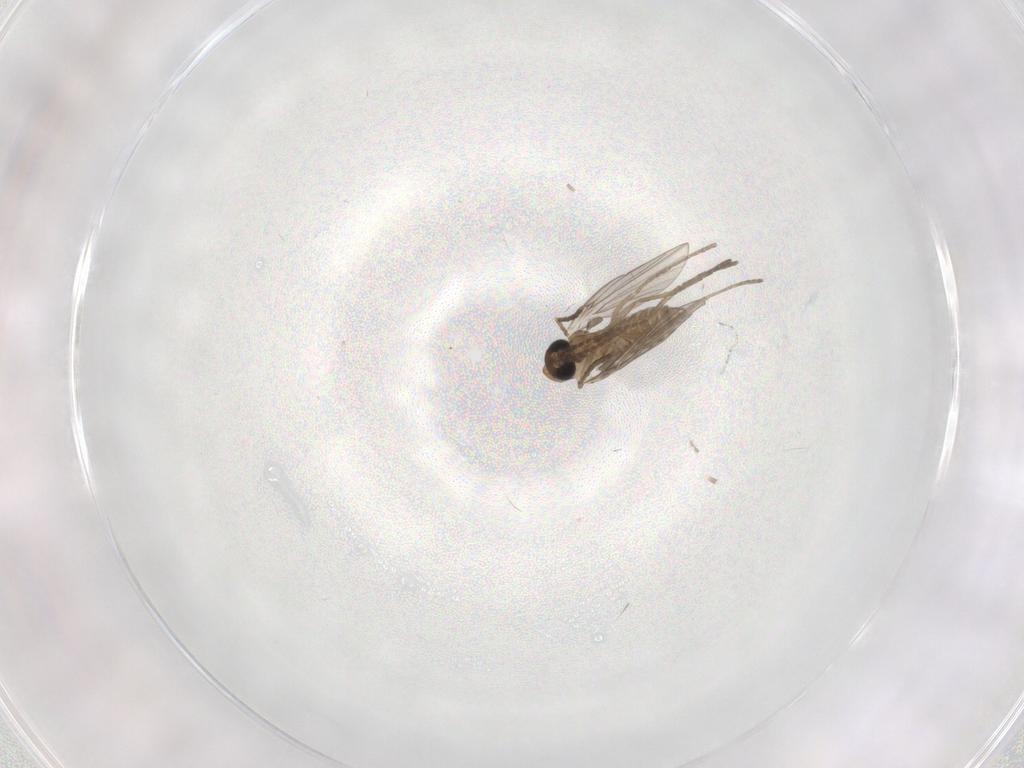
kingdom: Animalia
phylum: Arthropoda
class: Insecta
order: Diptera
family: Psychodidae
